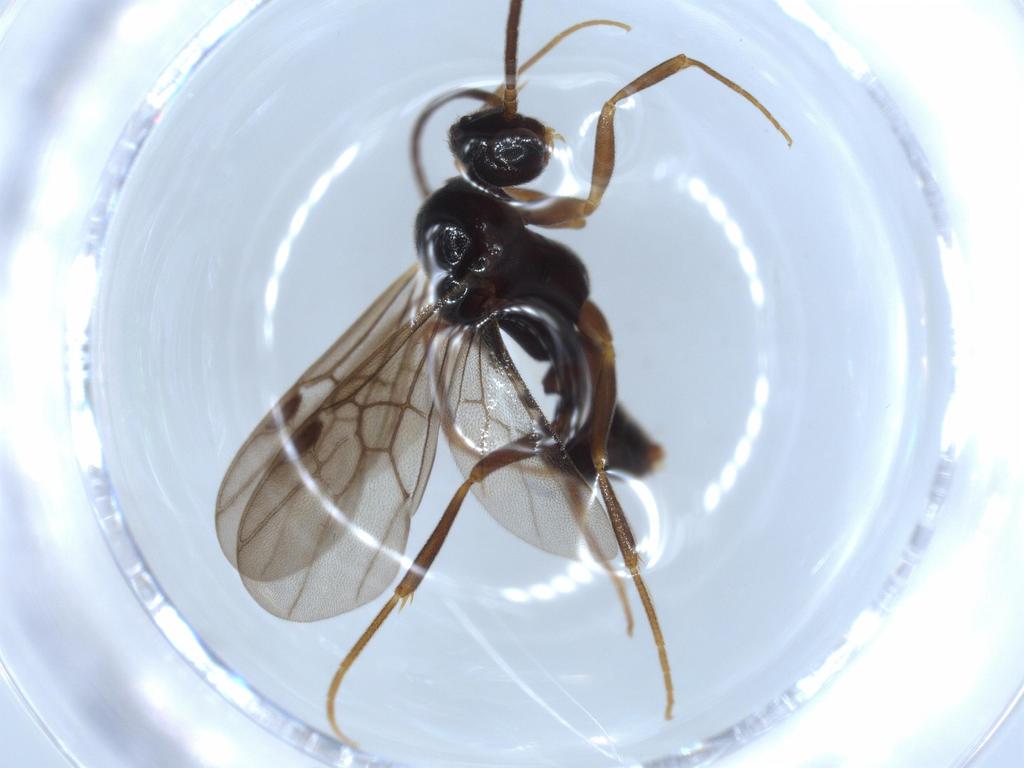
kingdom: Animalia
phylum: Arthropoda
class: Insecta
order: Hymenoptera
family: Formicidae
